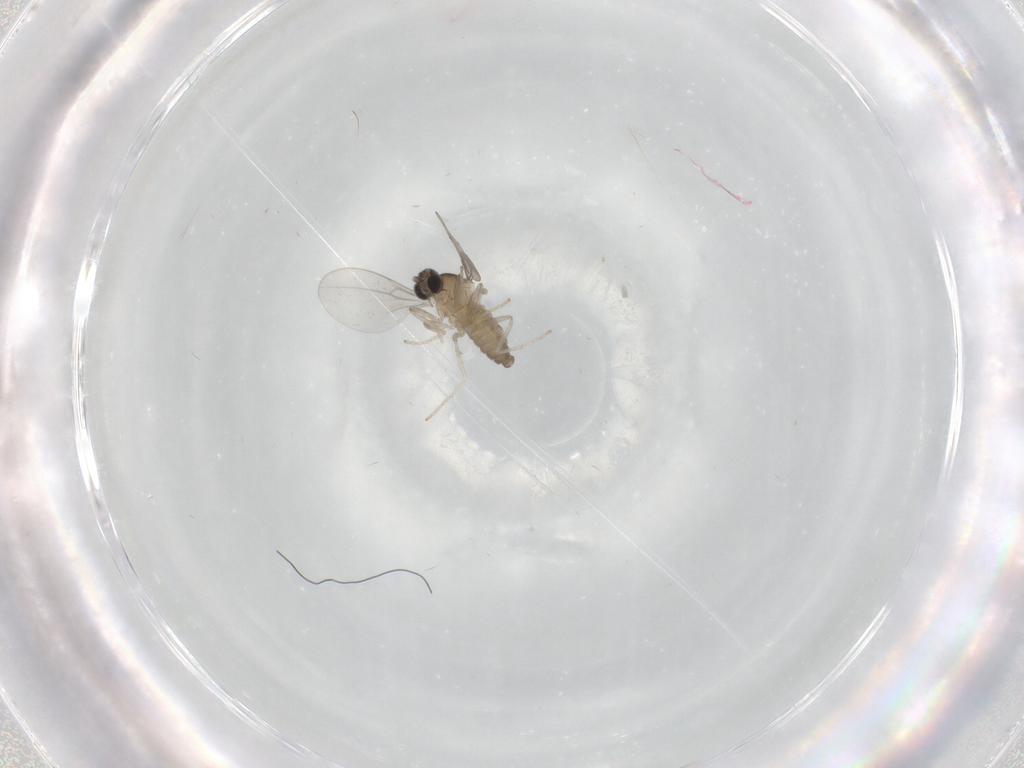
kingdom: Animalia
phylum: Arthropoda
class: Insecta
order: Diptera
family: Cecidomyiidae
